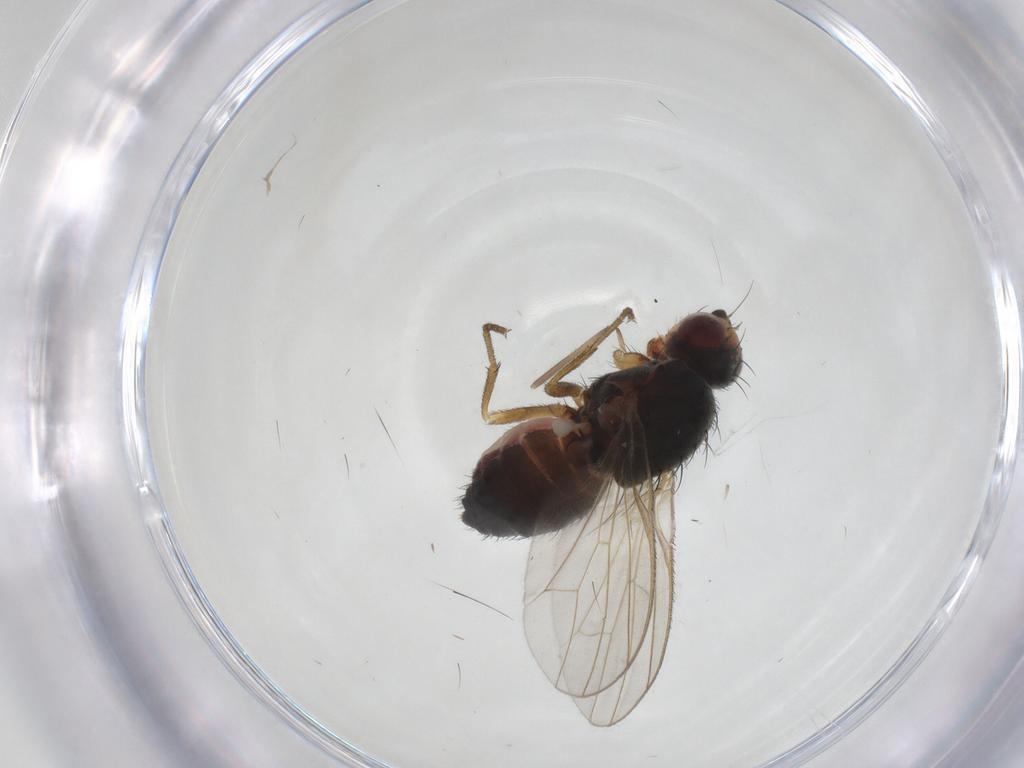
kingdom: Animalia
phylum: Arthropoda
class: Insecta
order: Diptera
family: Heleomyzidae
